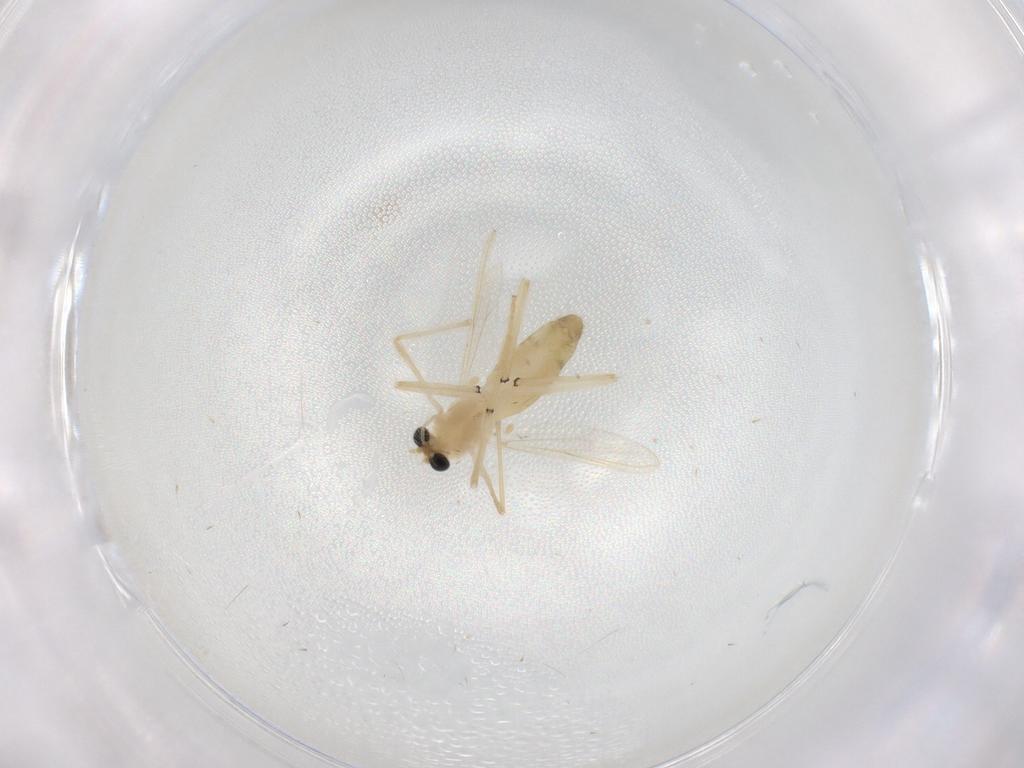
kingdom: Animalia
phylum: Arthropoda
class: Insecta
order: Diptera
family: Chironomidae
